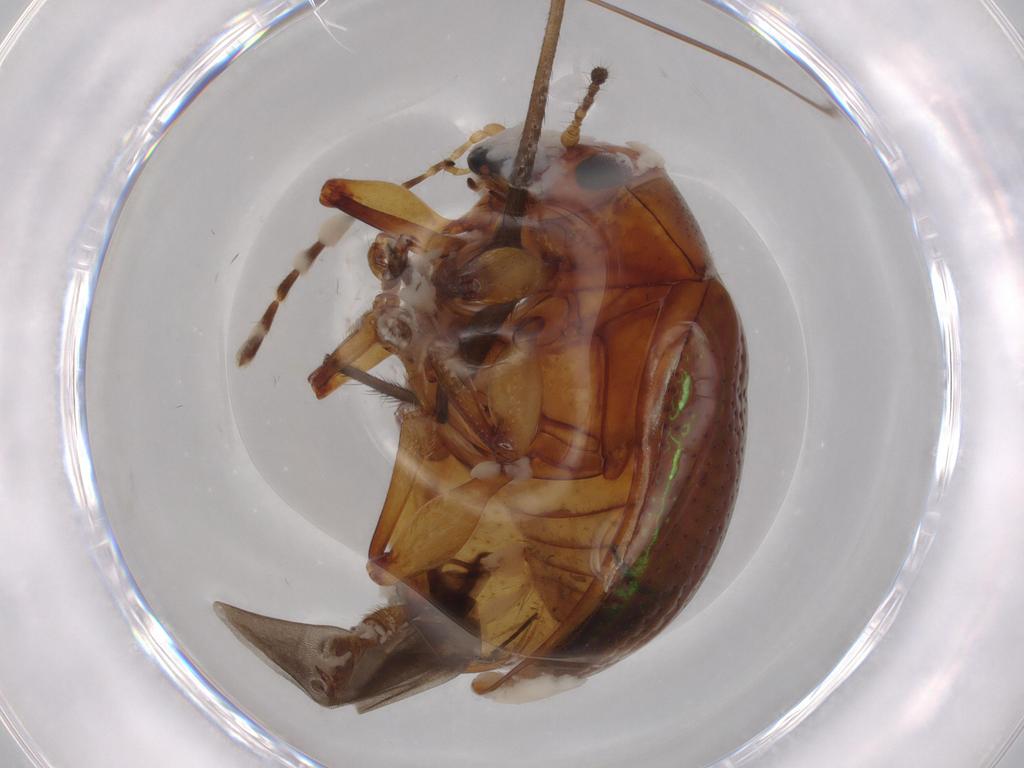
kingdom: Animalia
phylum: Arthropoda
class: Insecta
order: Coleoptera
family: Chrysomelidae
